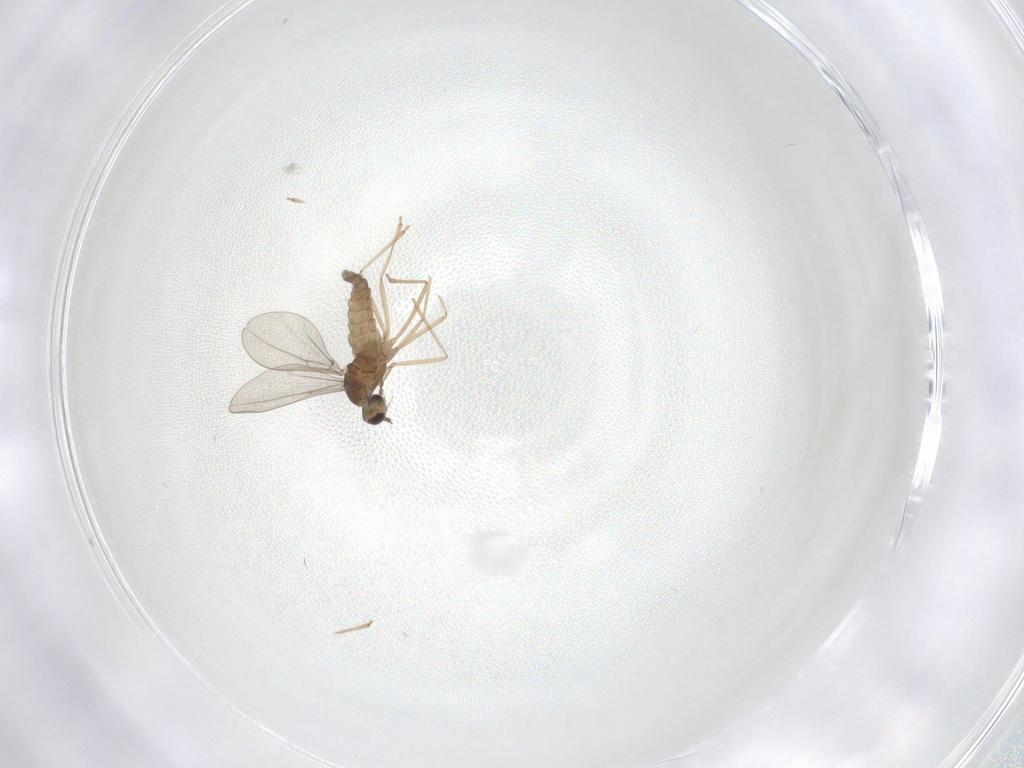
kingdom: Animalia
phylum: Arthropoda
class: Insecta
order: Diptera
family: Cecidomyiidae
